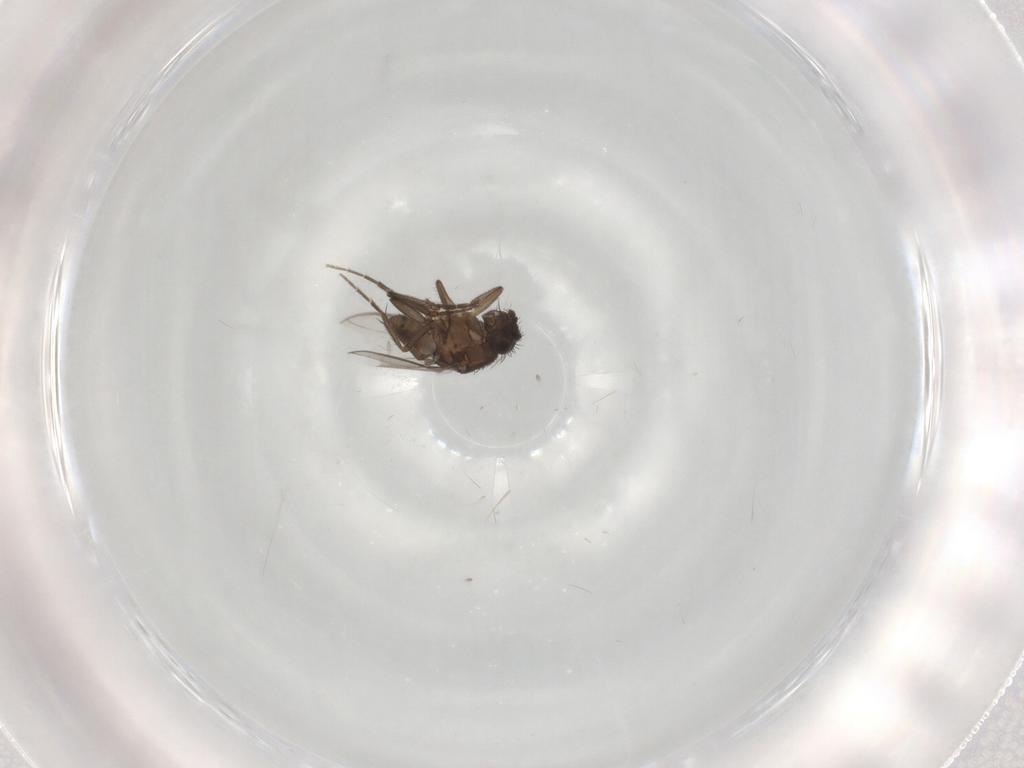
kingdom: Animalia
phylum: Arthropoda
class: Insecta
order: Diptera
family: Sphaeroceridae
